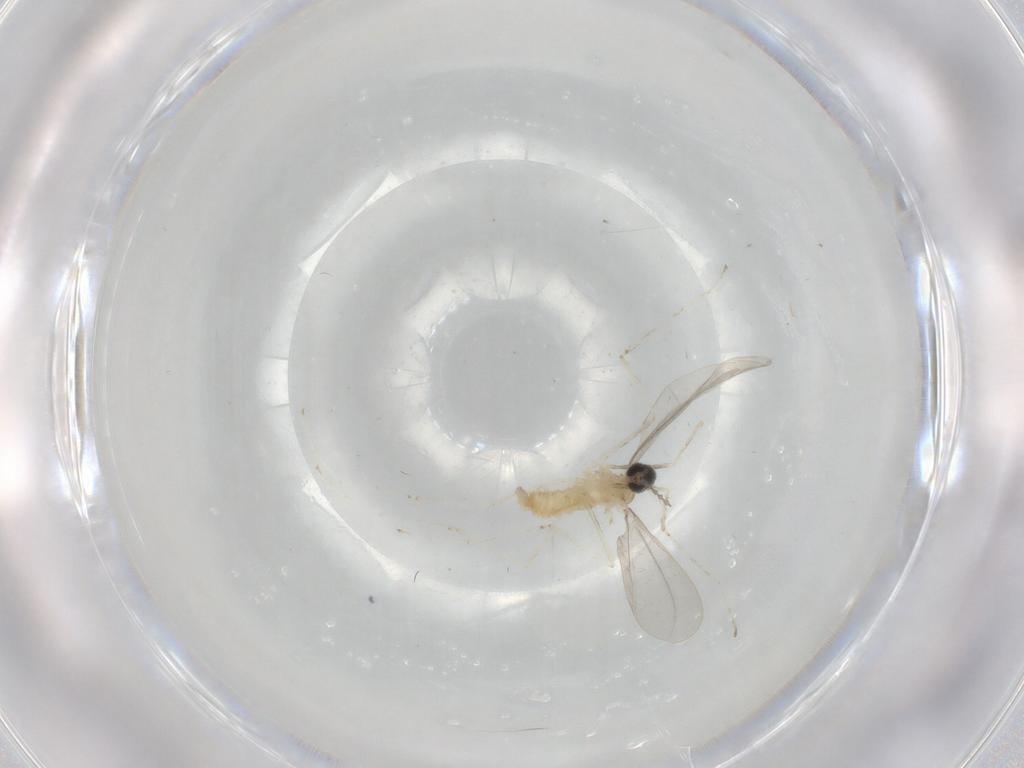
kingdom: Animalia
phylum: Arthropoda
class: Insecta
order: Diptera
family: Cecidomyiidae
